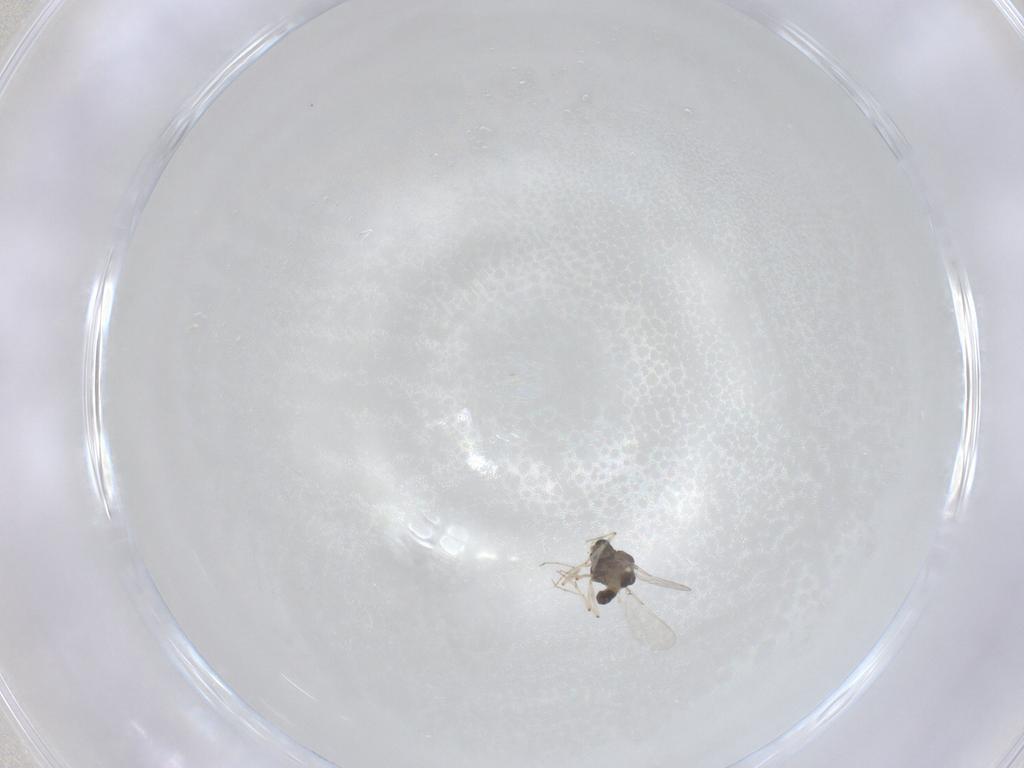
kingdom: Animalia
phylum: Arthropoda
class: Insecta
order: Diptera
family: Chironomidae
